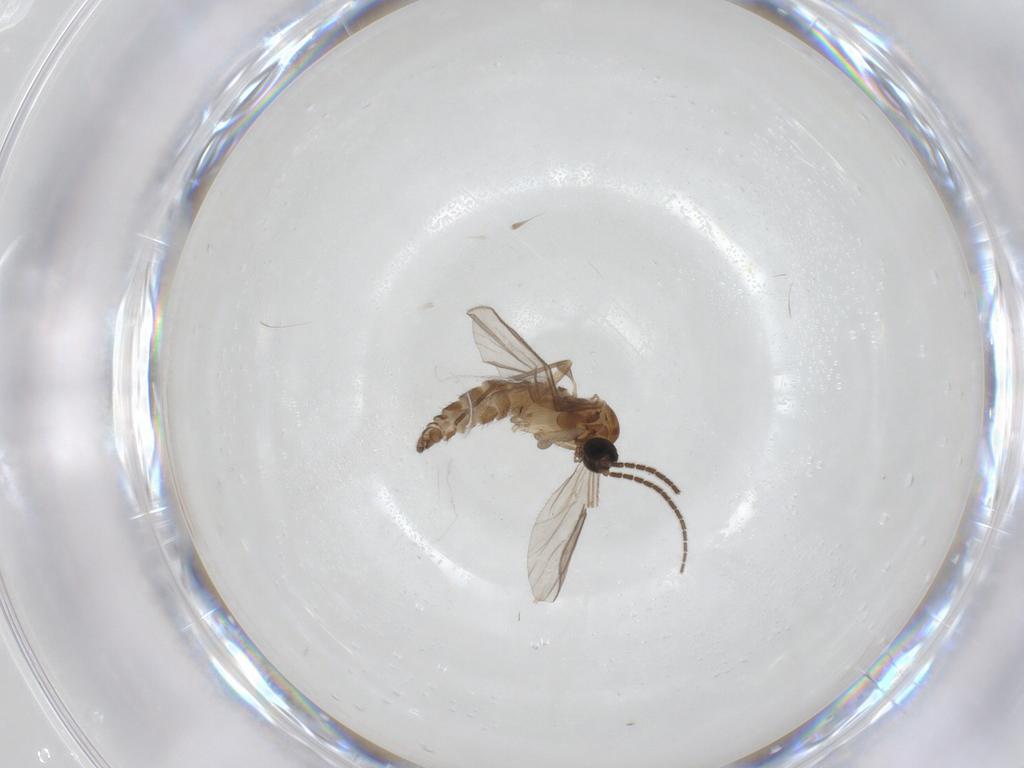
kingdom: Animalia
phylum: Arthropoda
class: Insecta
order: Diptera
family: Sciaridae
